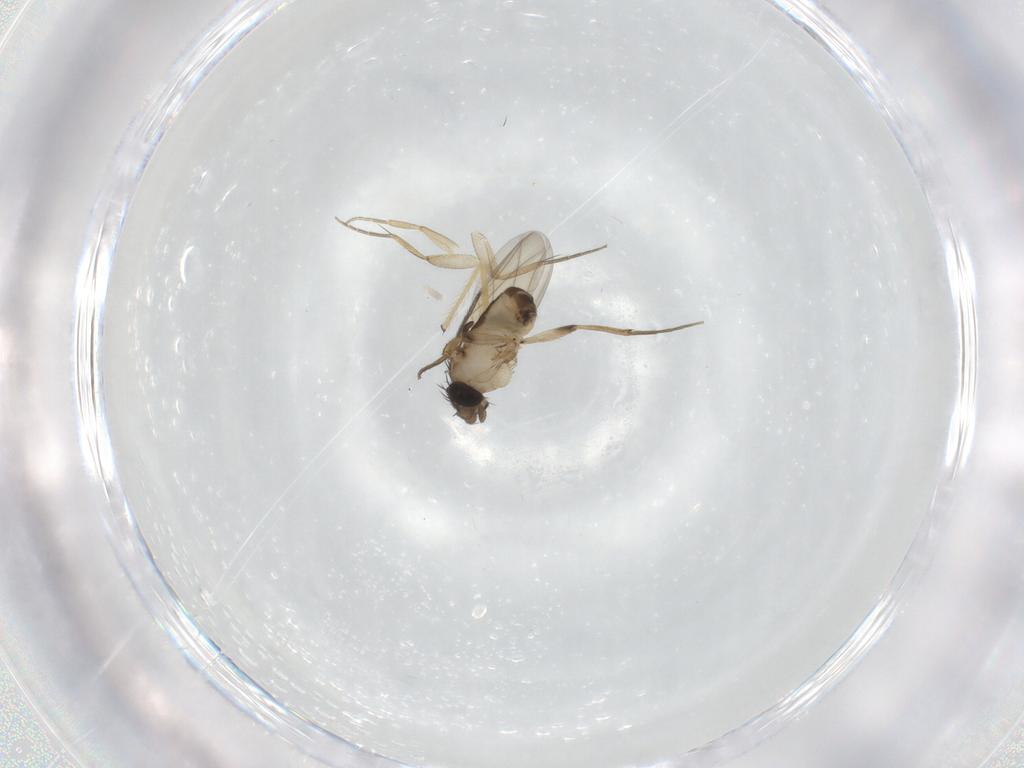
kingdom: Animalia
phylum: Arthropoda
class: Insecta
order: Diptera
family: Phoridae
